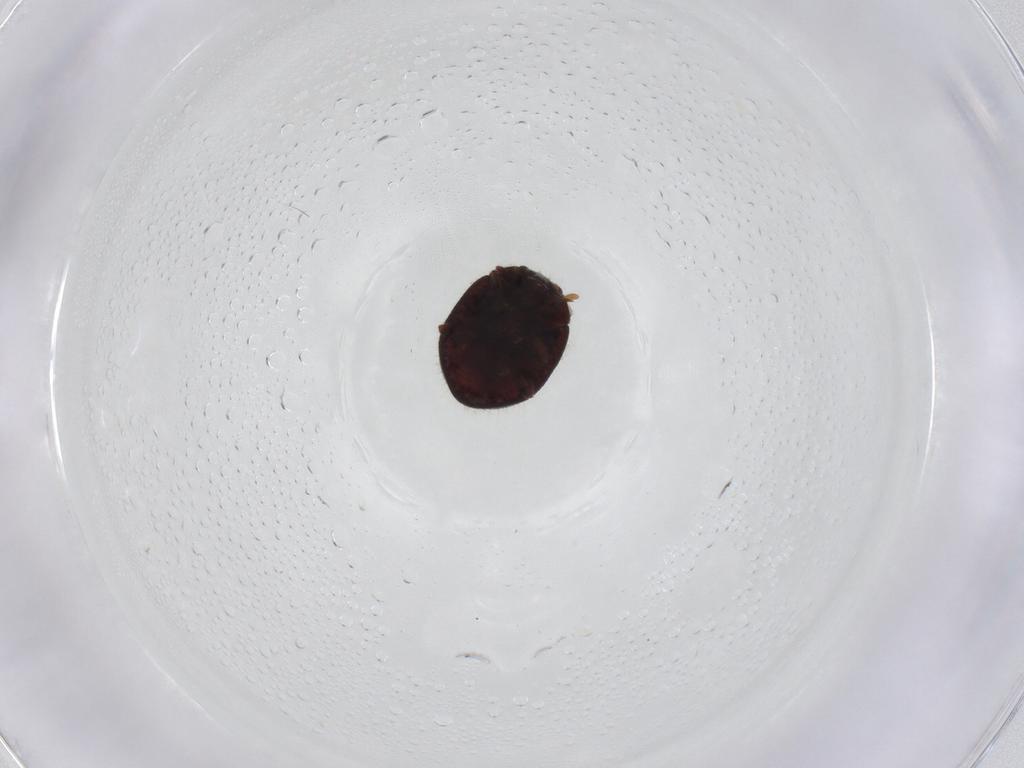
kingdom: Animalia
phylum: Arthropoda
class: Insecta
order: Coleoptera
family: Coccinellidae
